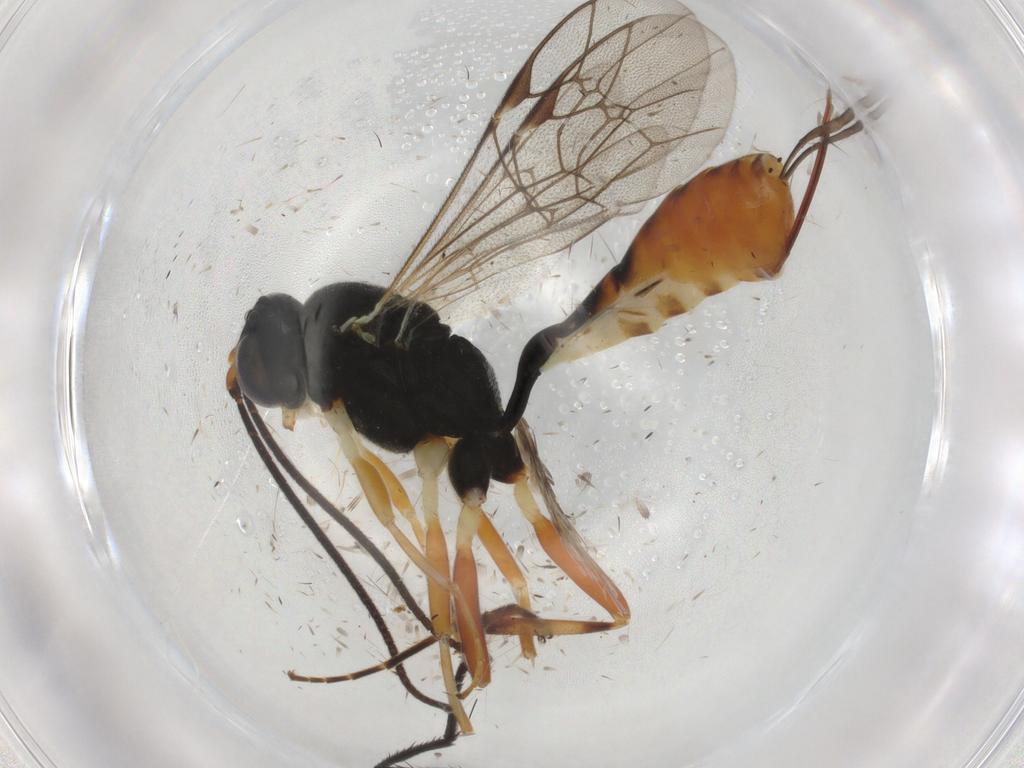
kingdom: Animalia
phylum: Arthropoda
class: Insecta
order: Hymenoptera
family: Ichneumonidae
